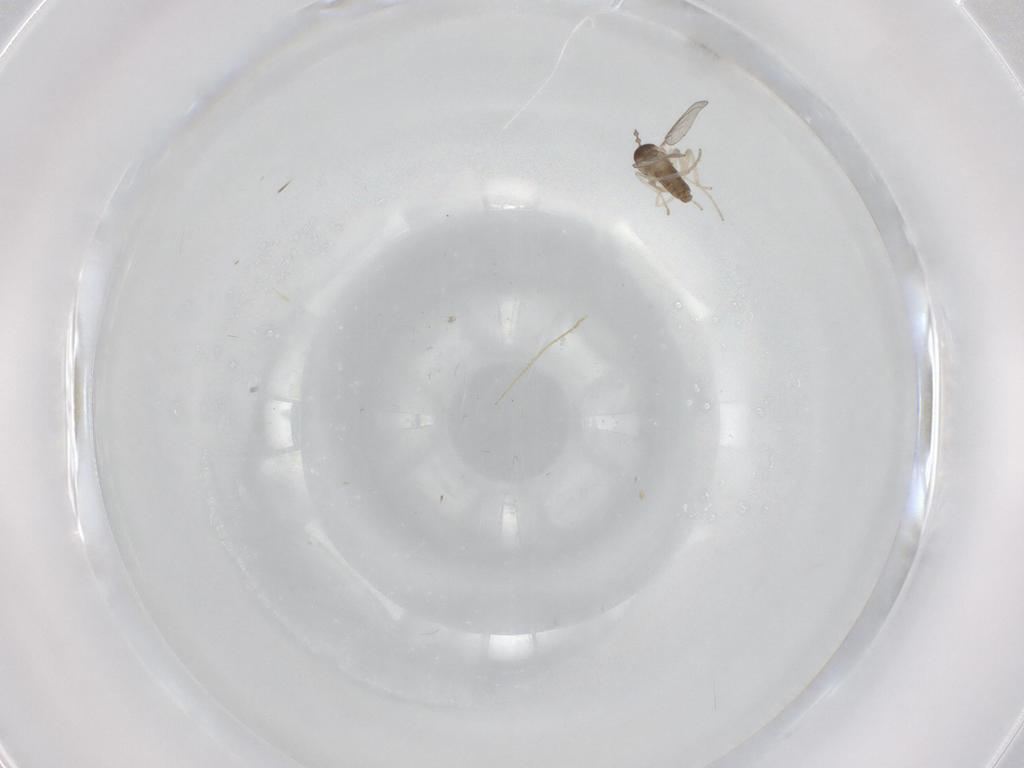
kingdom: Animalia
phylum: Arthropoda
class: Insecta
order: Diptera
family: Cecidomyiidae
